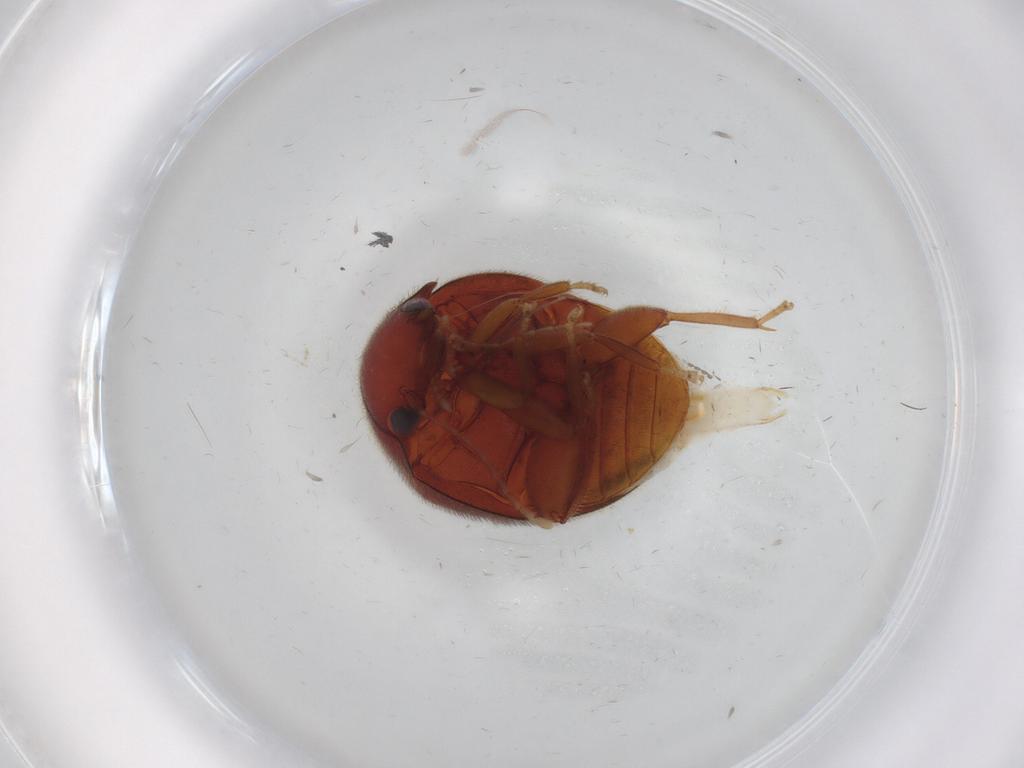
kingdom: Animalia
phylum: Arthropoda
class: Insecta
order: Coleoptera
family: Scirtidae
